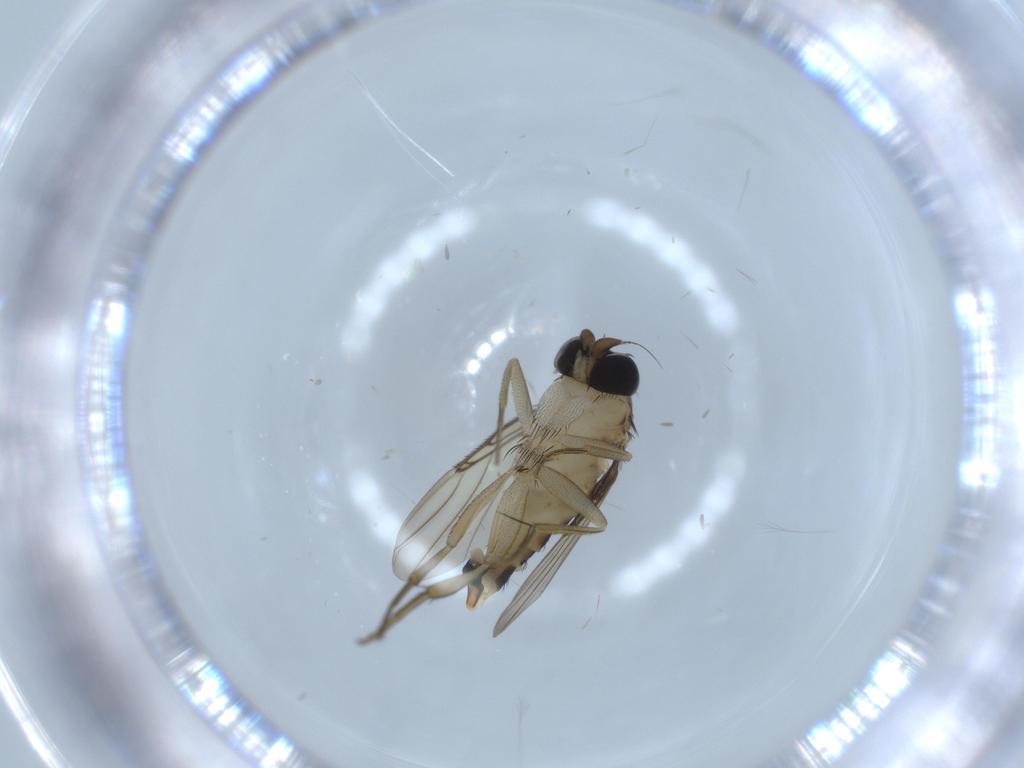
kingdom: Animalia
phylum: Arthropoda
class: Insecta
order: Diptera
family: Phoridae
